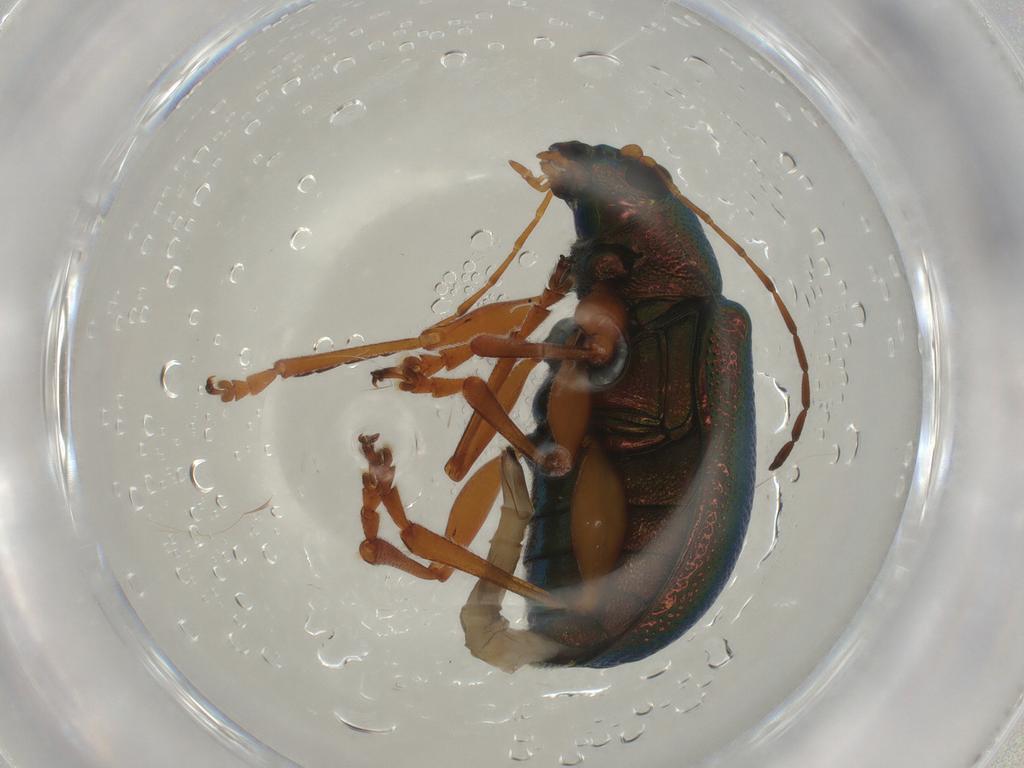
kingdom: Animalia
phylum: Arthropoda
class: Insecta
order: Coleoptera
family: Chrysomelidae
